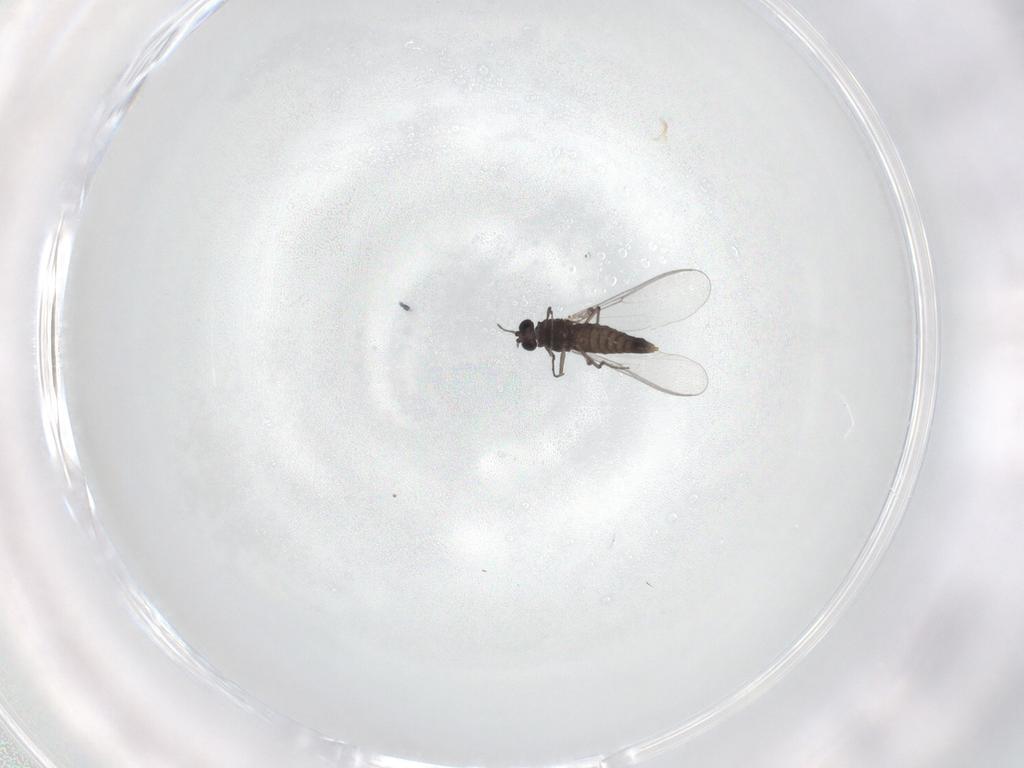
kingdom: Animalia
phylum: Arthropoda
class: Insecta
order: Diptera
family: Chironomidae
